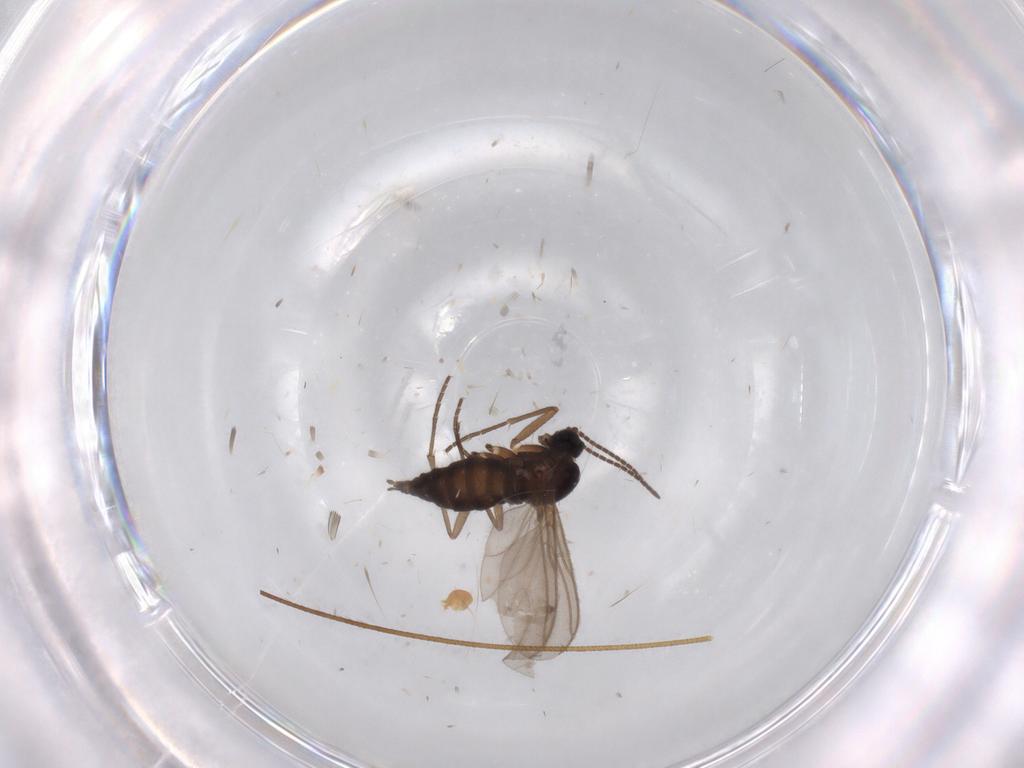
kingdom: Animalia
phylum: Arthropoda
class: Insecta
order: Diptera
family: Sciaridae
